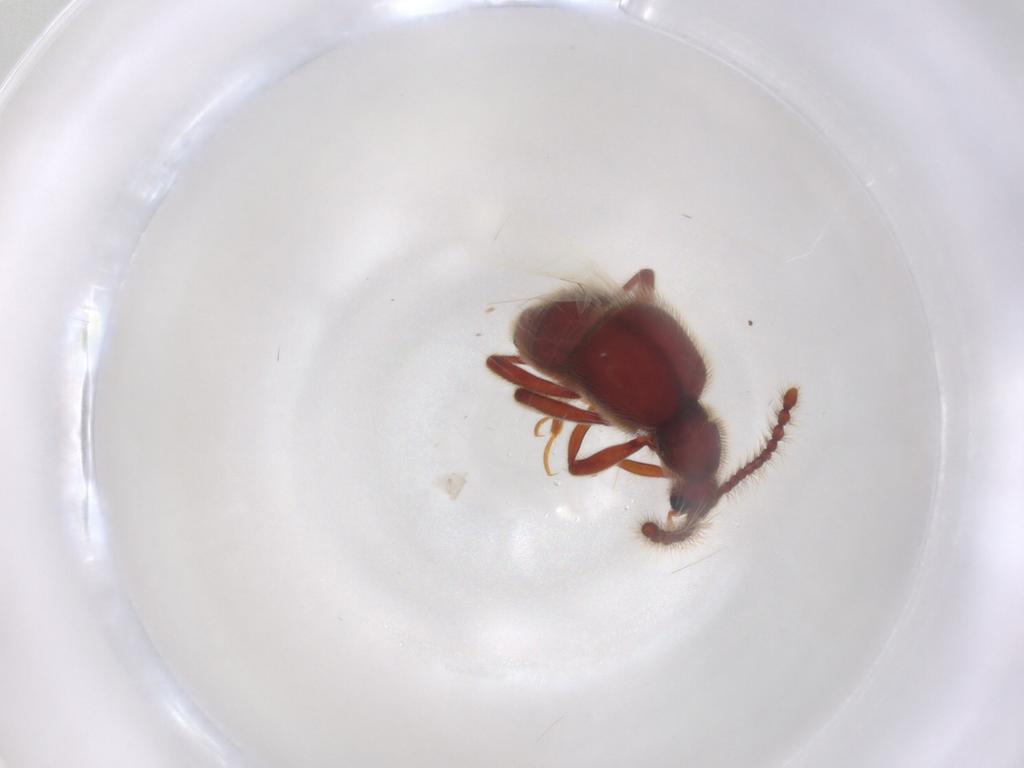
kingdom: Animalia
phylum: Arthropoda
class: Insecta
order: Coleoptera
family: Staphylinidae
